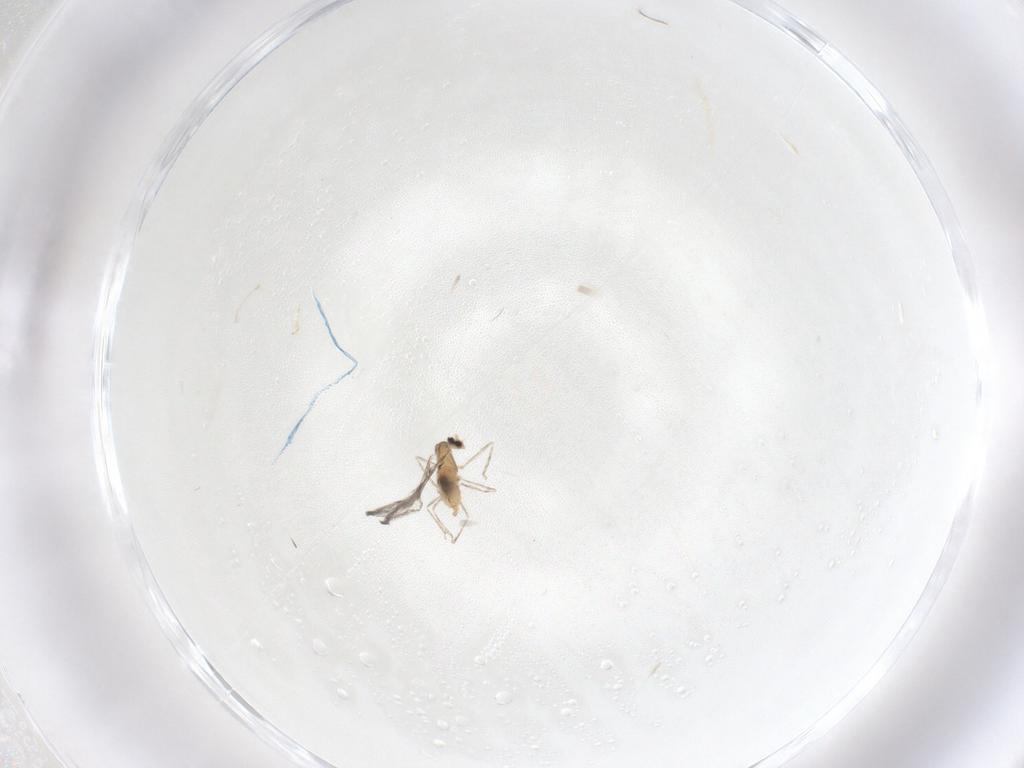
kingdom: Animalia
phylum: Arthropoda
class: Insecta
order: Diptera
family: Cecidomyiidae
